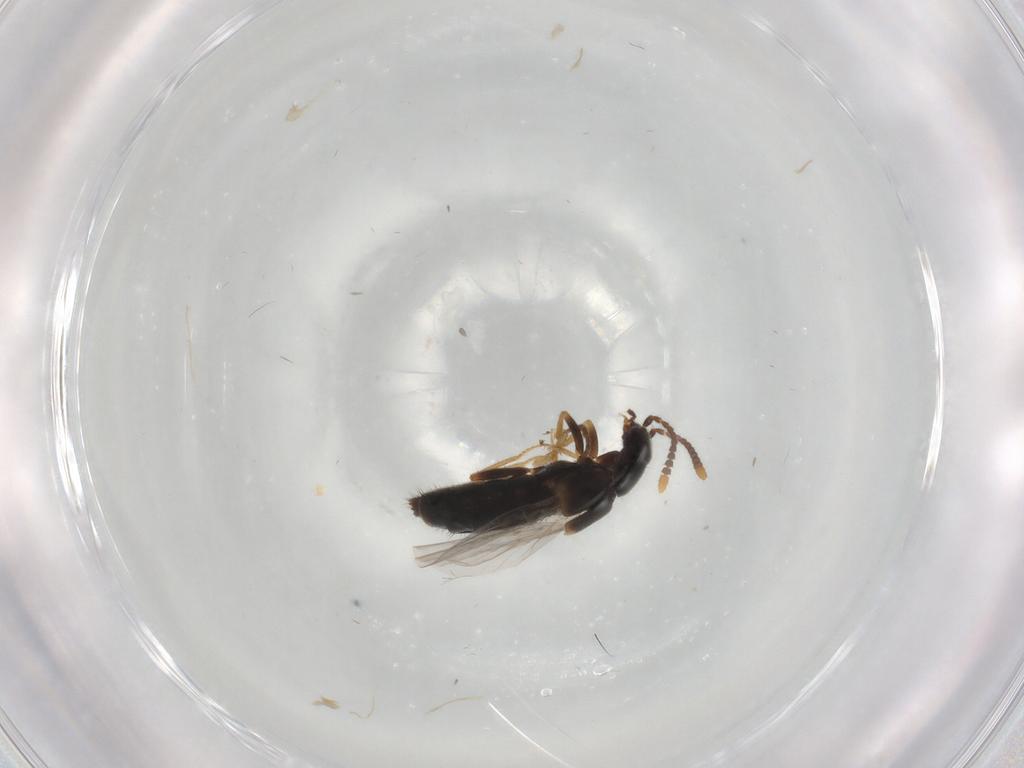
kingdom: Animalia
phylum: Arthropoda
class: Insecta
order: Coleoptera
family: Staphylinidae
